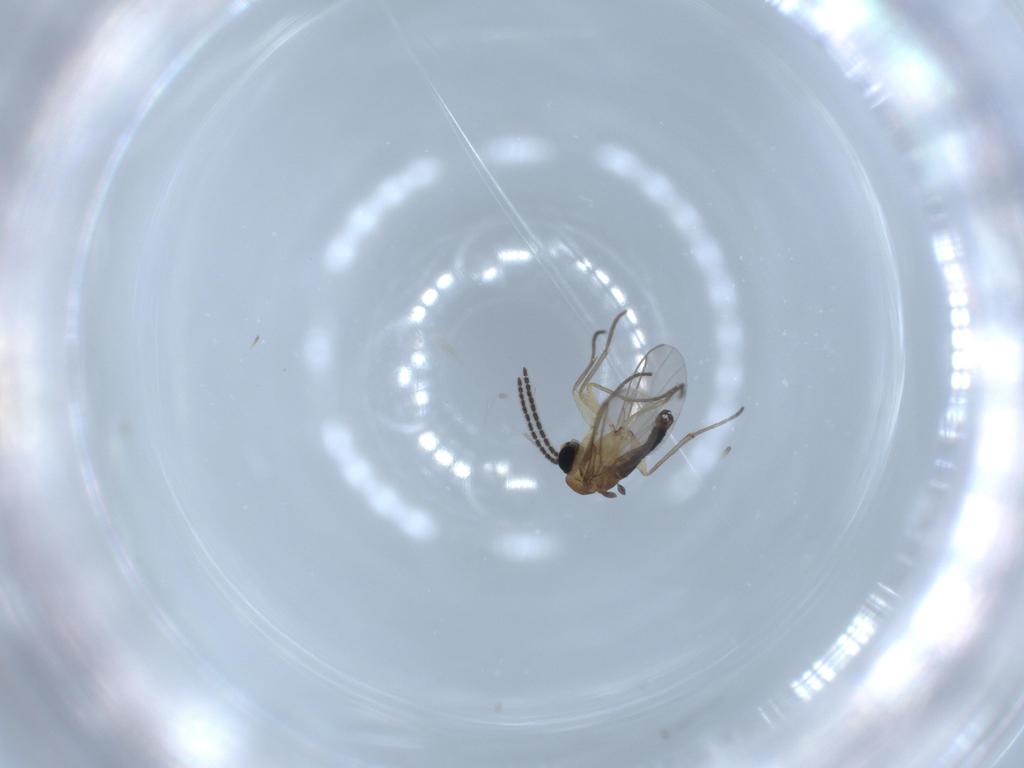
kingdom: Animalia
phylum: Arthropoda
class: Insecta
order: Diptera
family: Sciaridae
